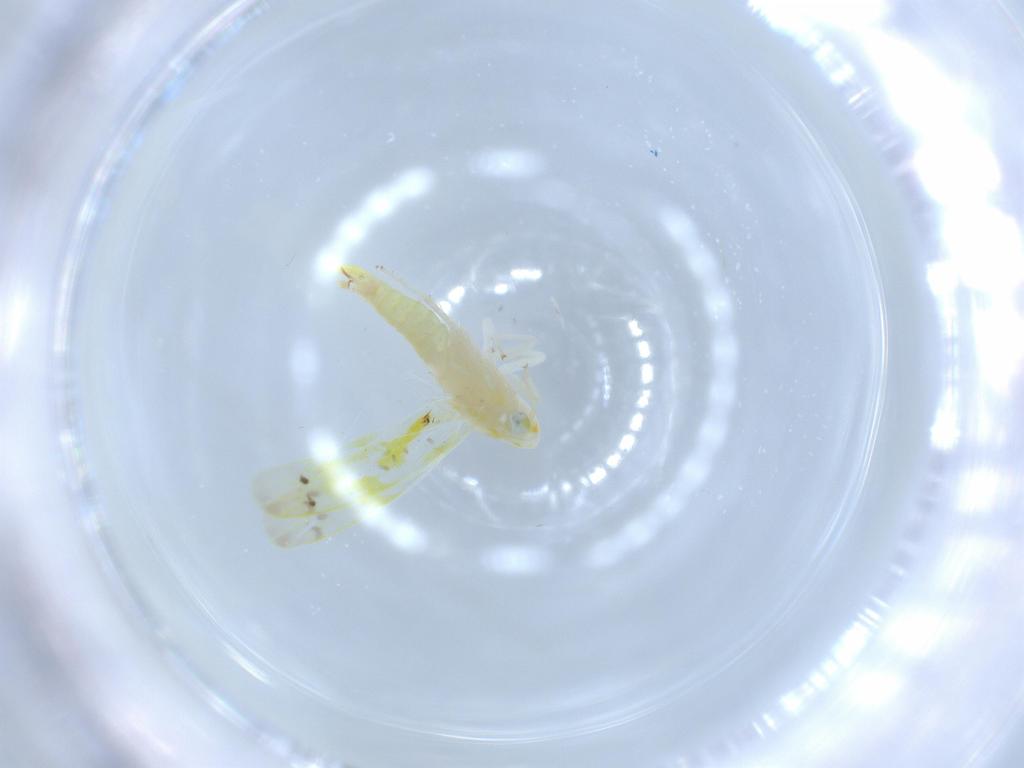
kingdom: Animalia
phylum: Arthropoda
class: Insecta
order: Hemiptera
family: Cicadellidae
